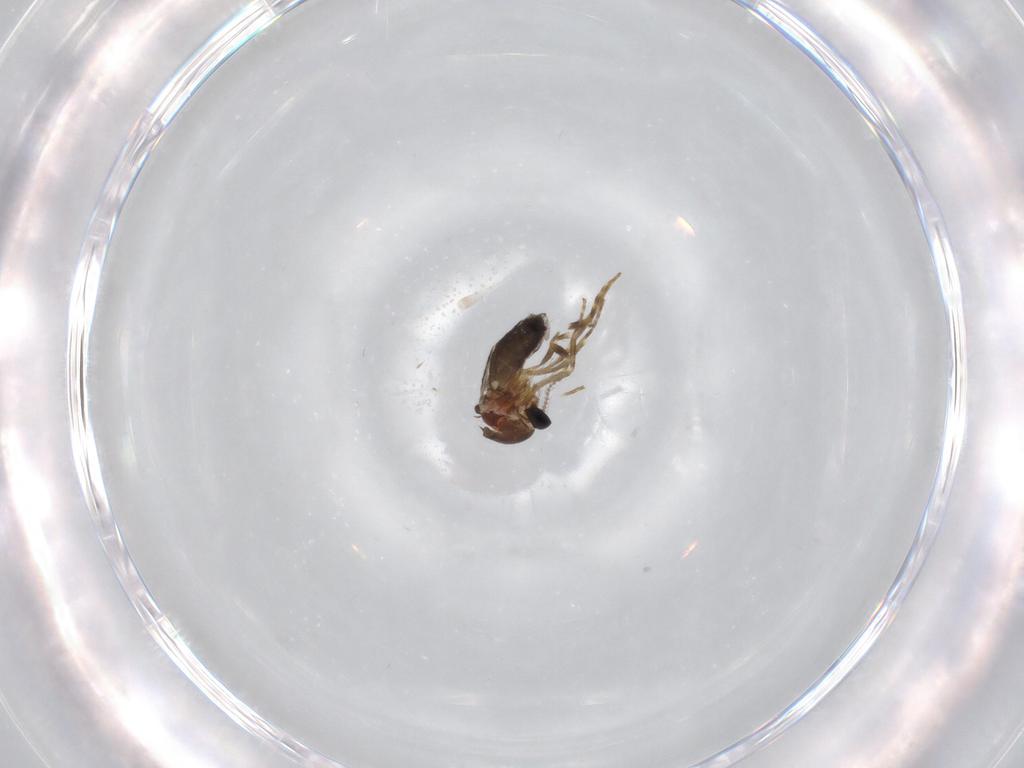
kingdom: Animalia
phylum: Arthropoda
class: Insecta
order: Diptera
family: Ceratopogonidae
